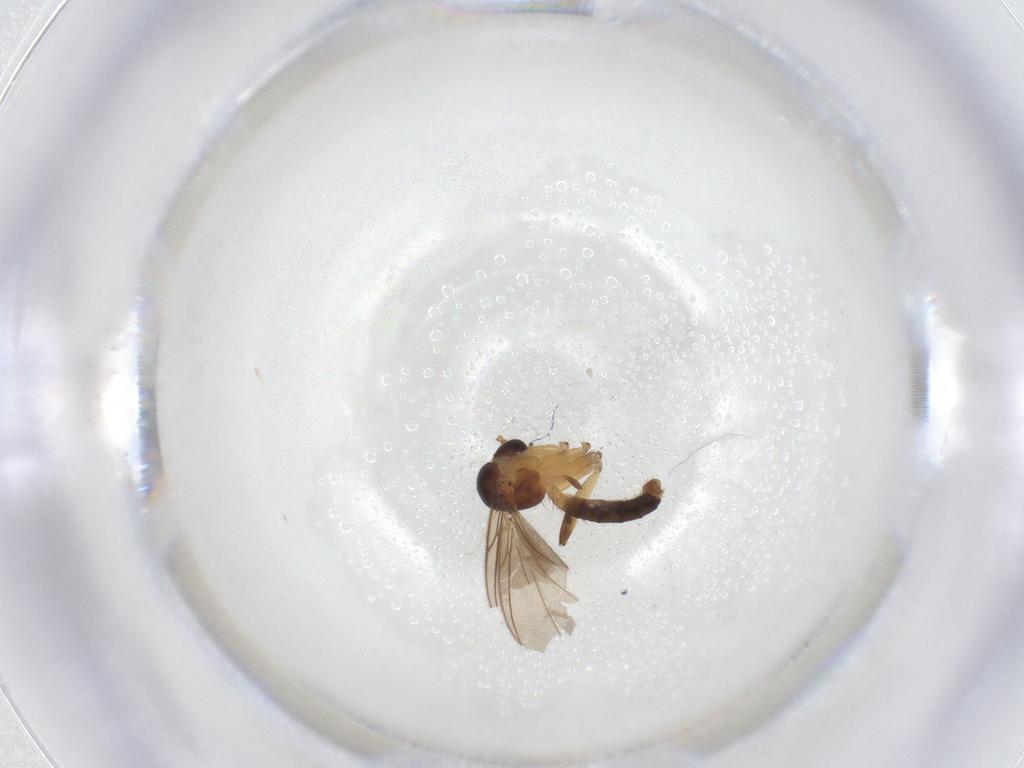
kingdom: Animalia
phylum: Arthropoda
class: Insecta
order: Diptera
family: Mycetophilidae
